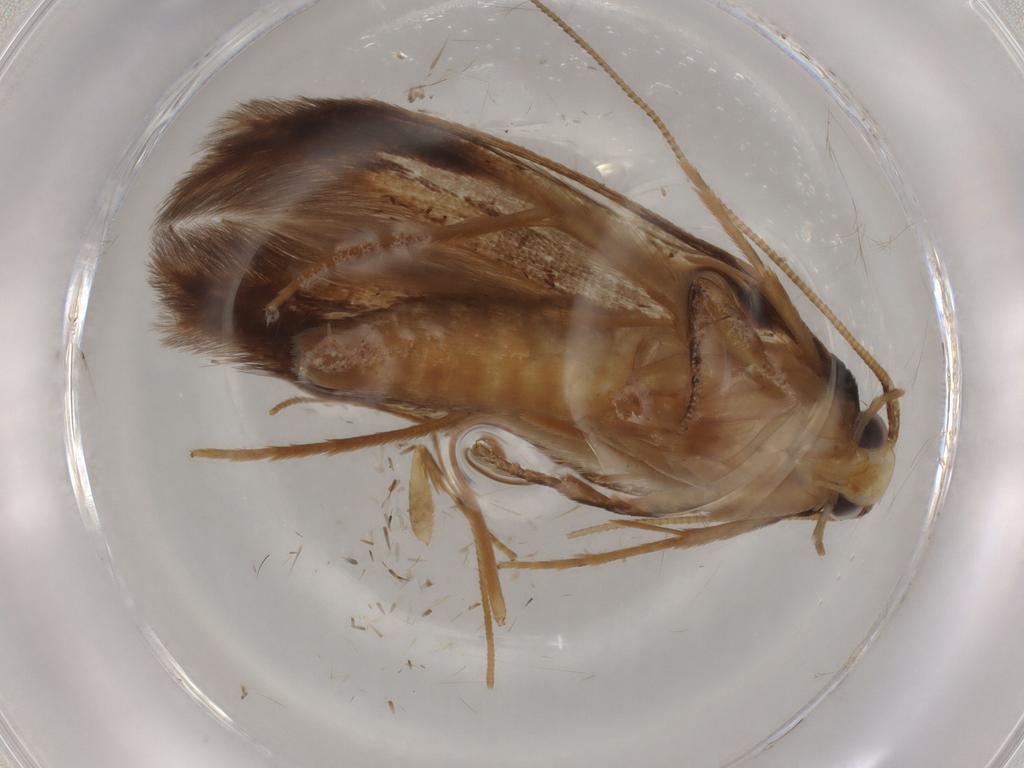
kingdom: Animalia
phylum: Arthropoda
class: Insecta
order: Lepidoptera
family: Tineidae
